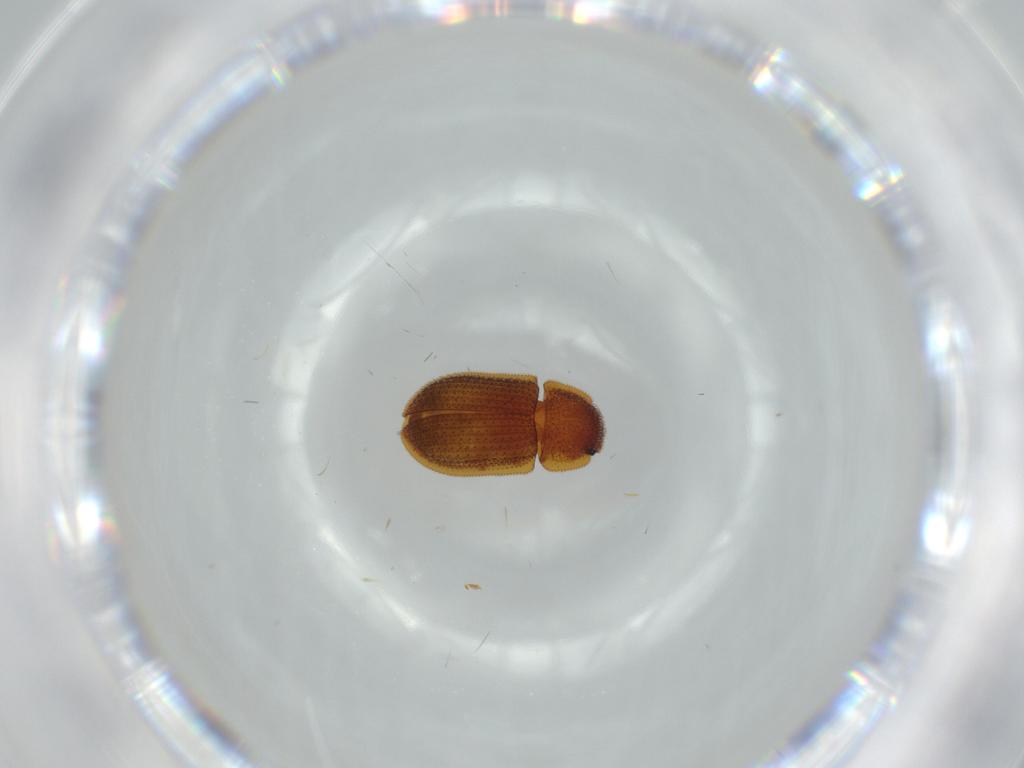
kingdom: Animalia
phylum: Arthropoda
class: Insecta
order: Coleoptera
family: Zopheridae
